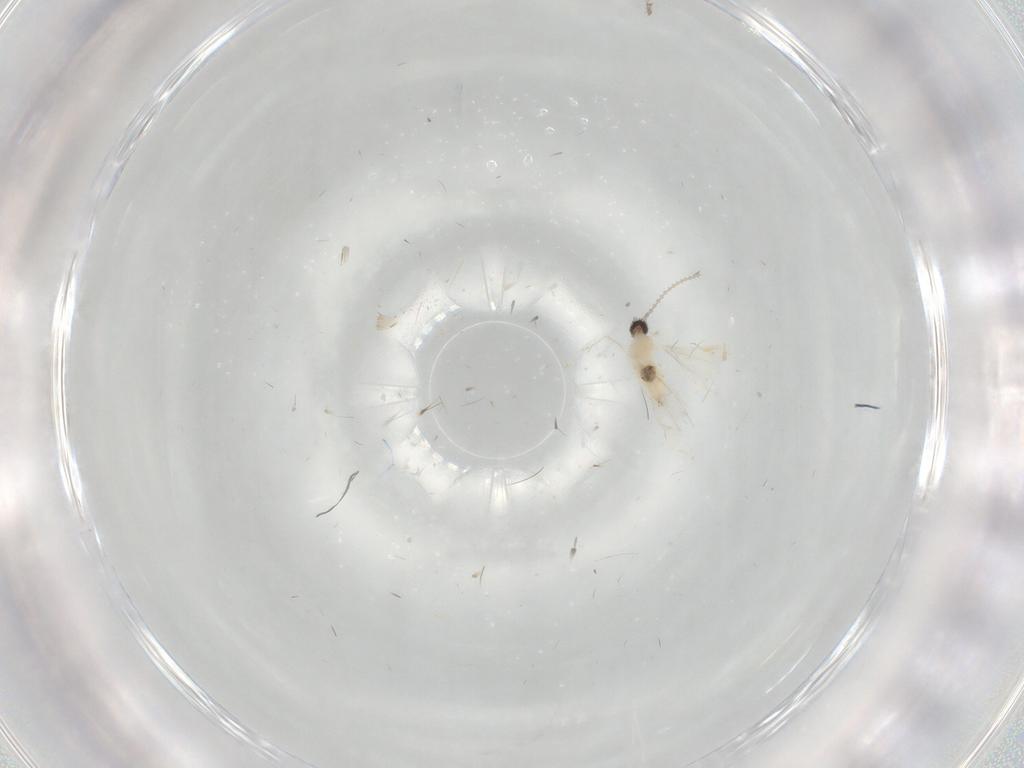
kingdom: Animalia
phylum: Arthropoda
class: Insecta
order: Diptera
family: Cecidomyiidae
